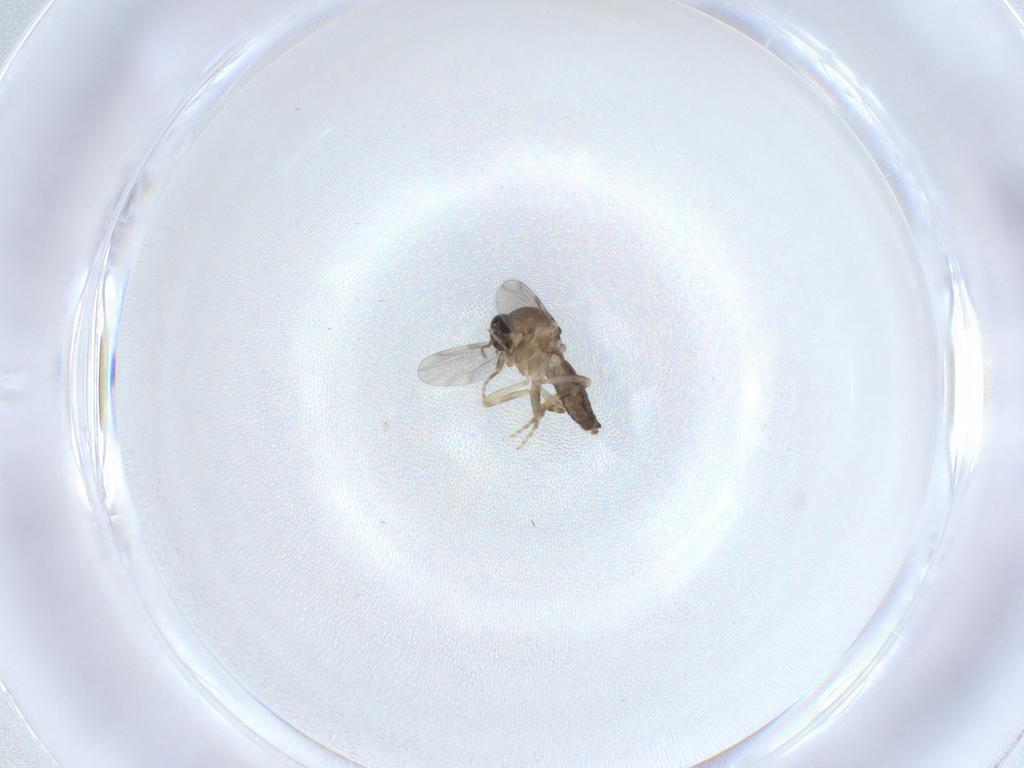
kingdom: Animalia
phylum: Arthropoda
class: Insecta
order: Diptera
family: Ceratopogonidae
